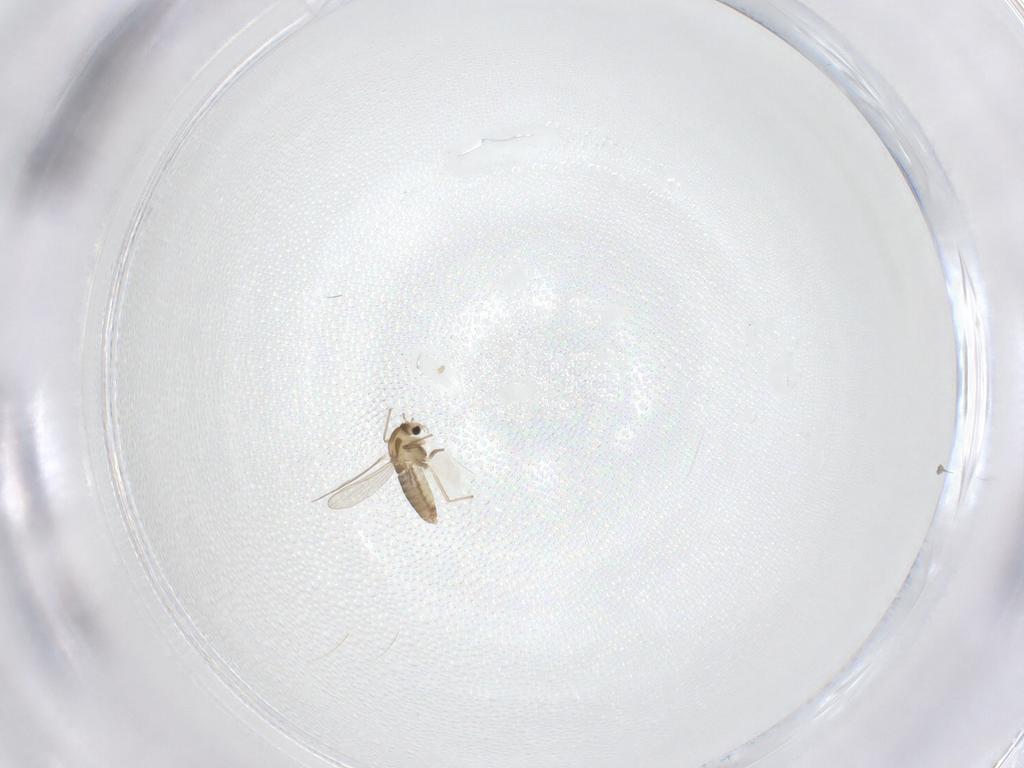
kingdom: Animalia
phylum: Arthropoda
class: Insecta
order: Diptera
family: Chironomidae
